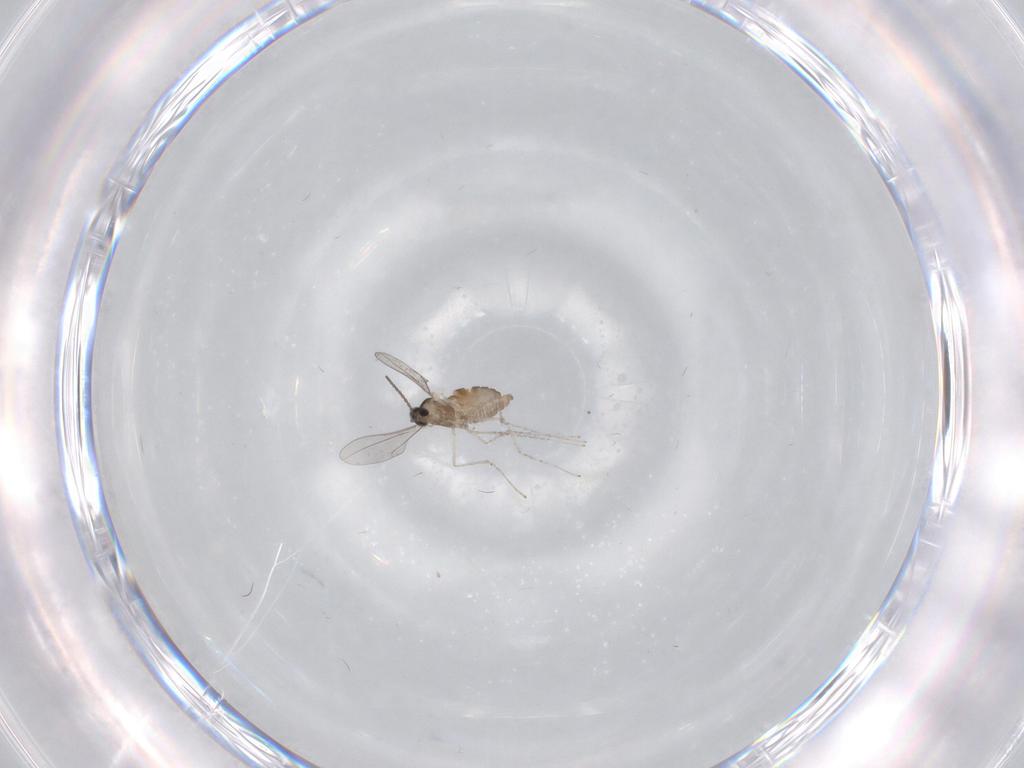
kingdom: Animalia
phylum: Arthropoda
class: Insecta
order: Diptera
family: Cecidomyiidae
